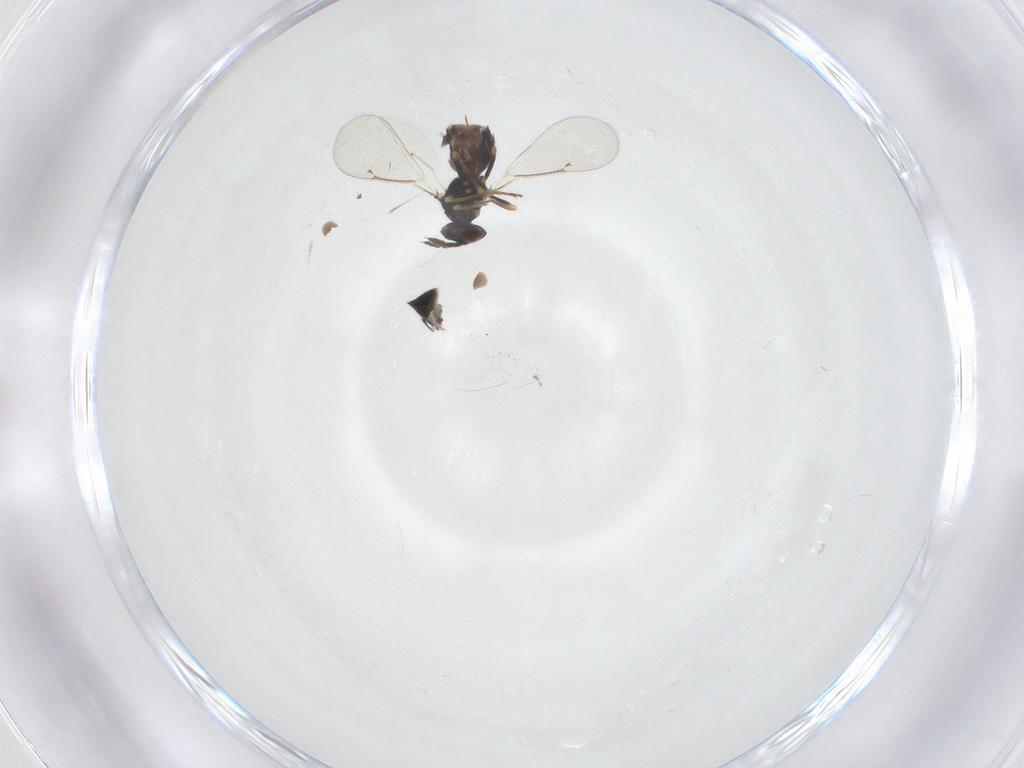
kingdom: Animalia
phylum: Arthropoda
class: Insecta
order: Hymenoptera
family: Eulophidae
